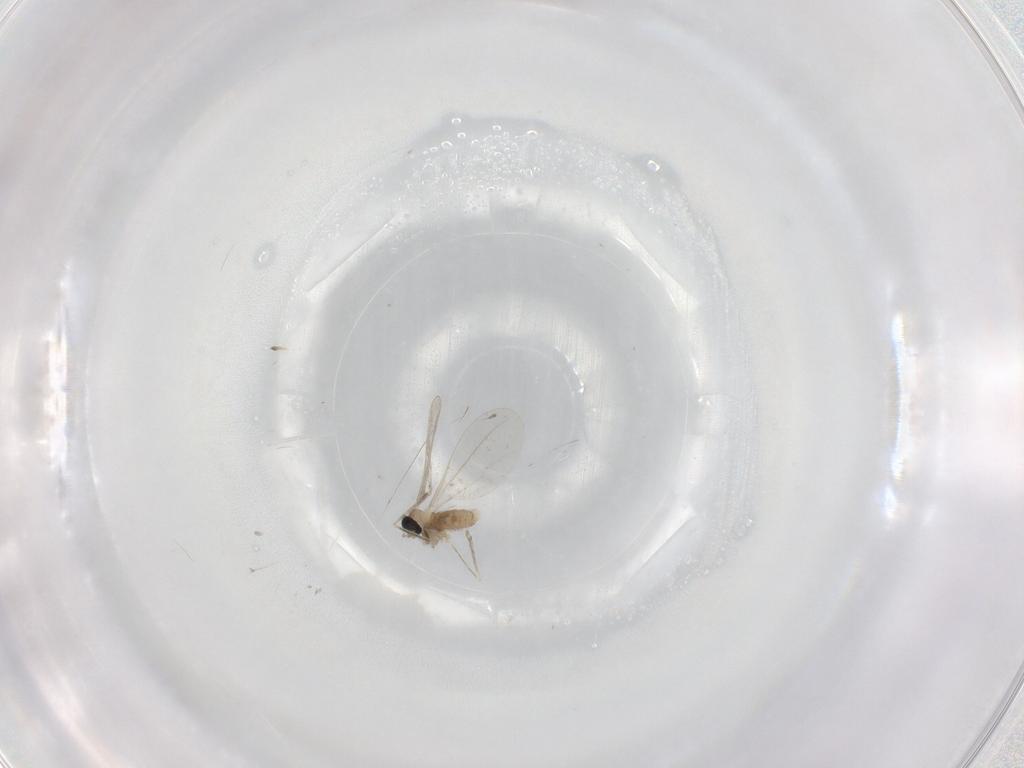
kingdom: Animalia
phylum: Arthropoda
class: Insecta
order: Diptera
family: Cecidomyiidae
